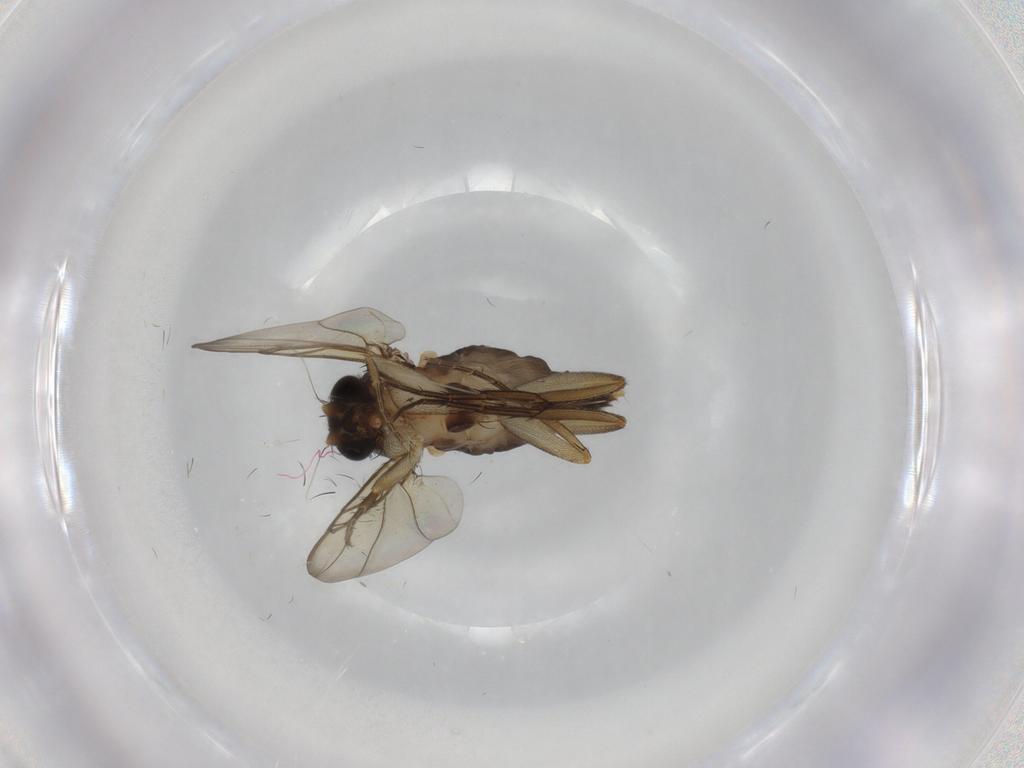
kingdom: Animalia
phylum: Arthropoda
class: Insecta
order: Diptera
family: Phoridae
